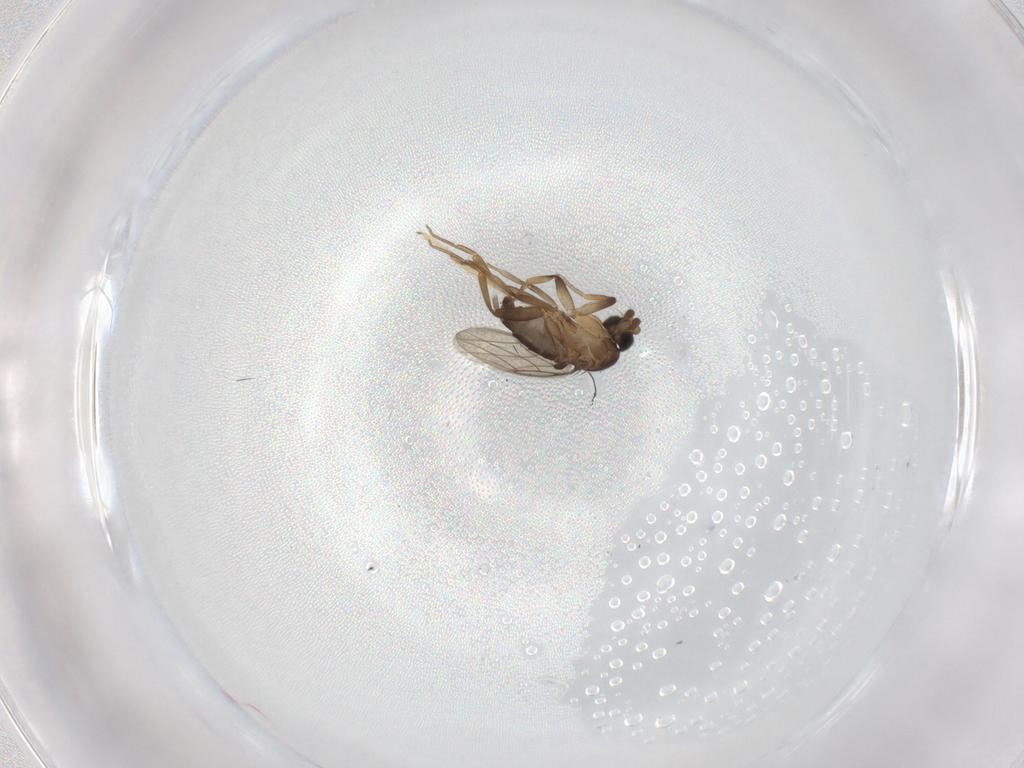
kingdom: Animalia
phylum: Arthropoda
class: Insecta
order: Diptera
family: Chironomidae
